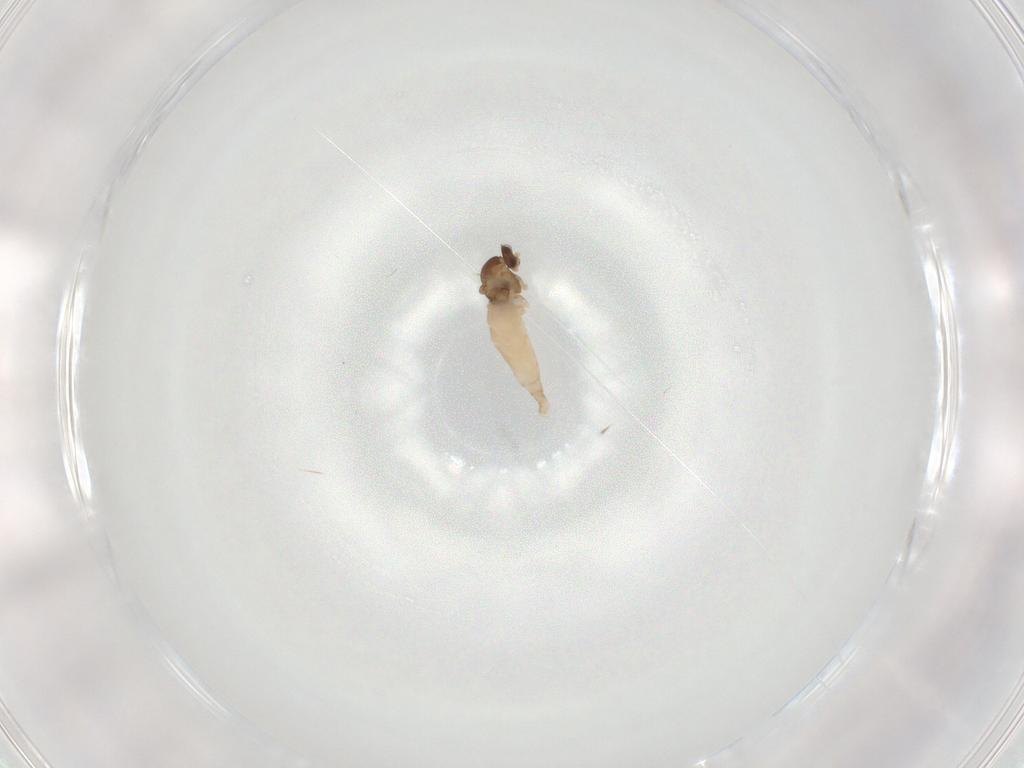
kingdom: Animalia
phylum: Arthropoda
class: Insecta
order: Diptera
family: Cecidomyiidae
